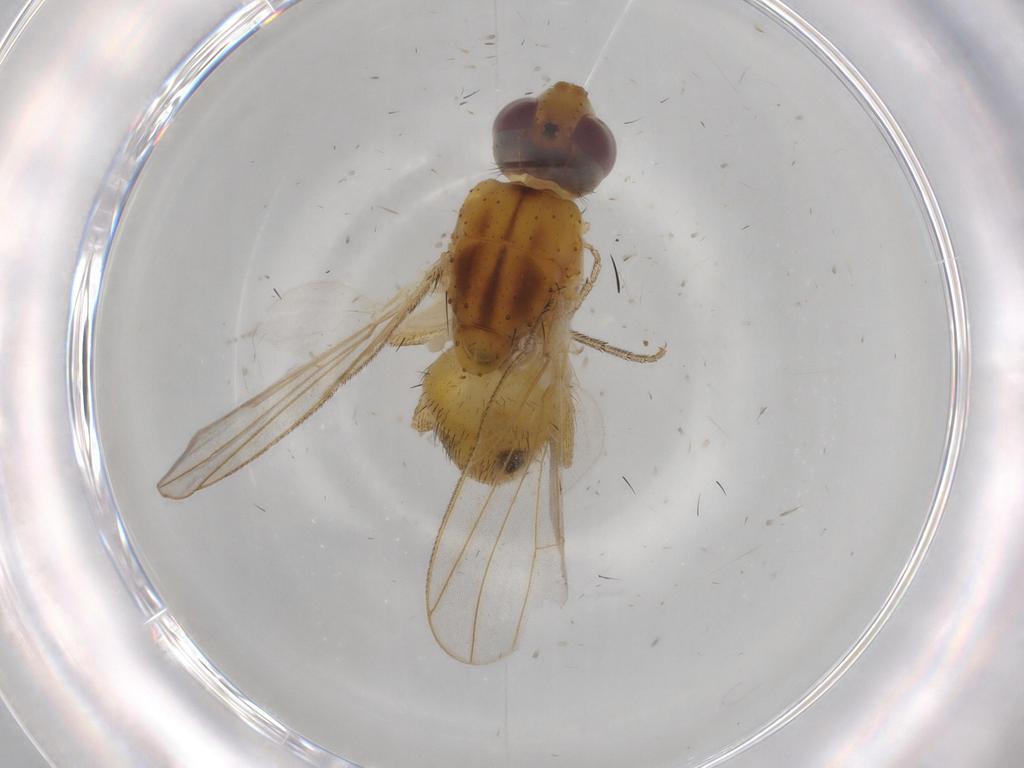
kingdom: Animalia
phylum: Arthropoda
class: Insecta
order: Diptera
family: Muscidae
